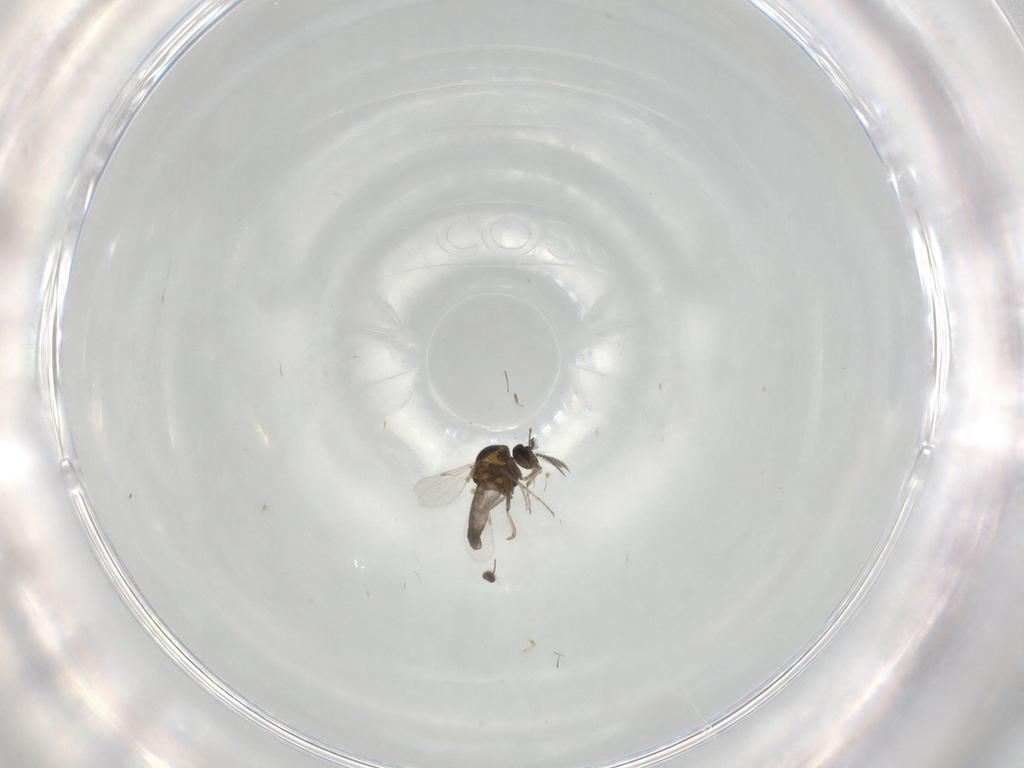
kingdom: Animalia
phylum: Arthropoda
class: Insecta
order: Diptera
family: Ceratopogonidae
